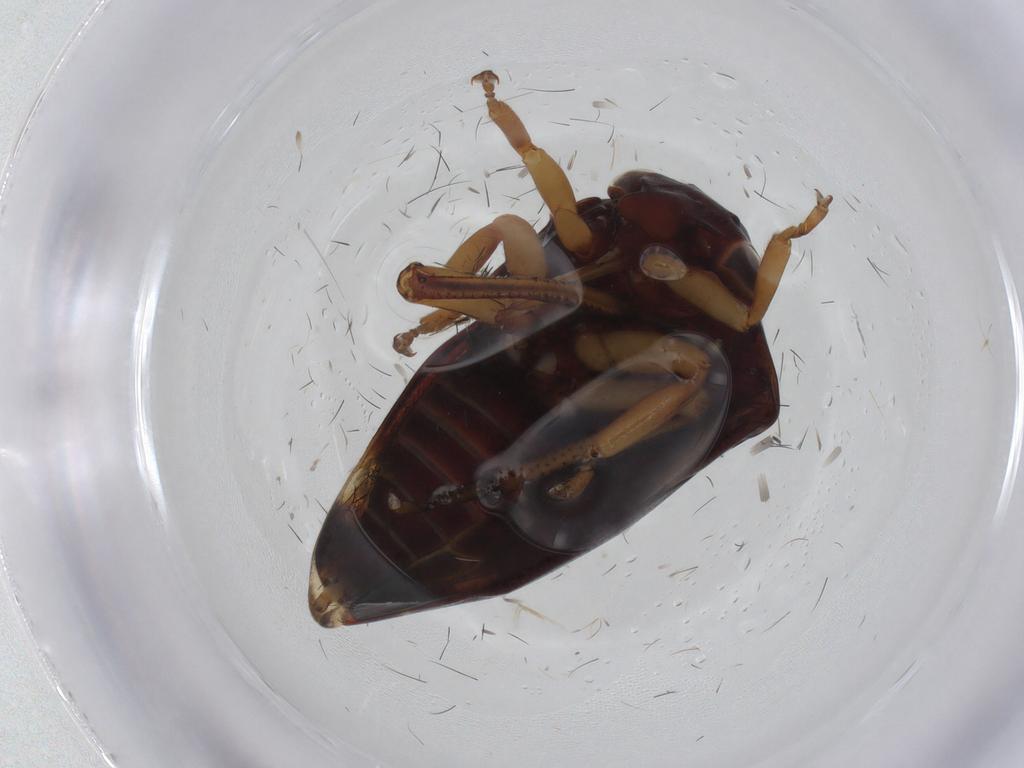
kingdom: Animalia
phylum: Arthropoda
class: Insecta
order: Hemiptera
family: Membracidae
